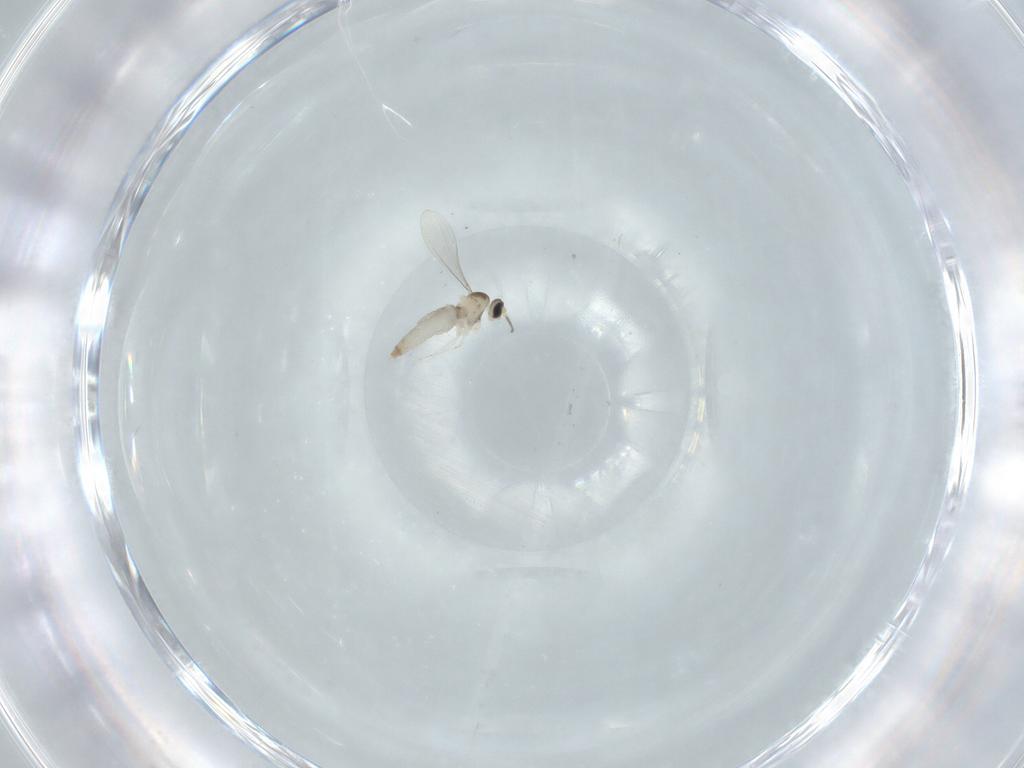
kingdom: Animalia
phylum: Arthropoda
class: Insecta
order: Diptera
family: Cecidomyiidae
